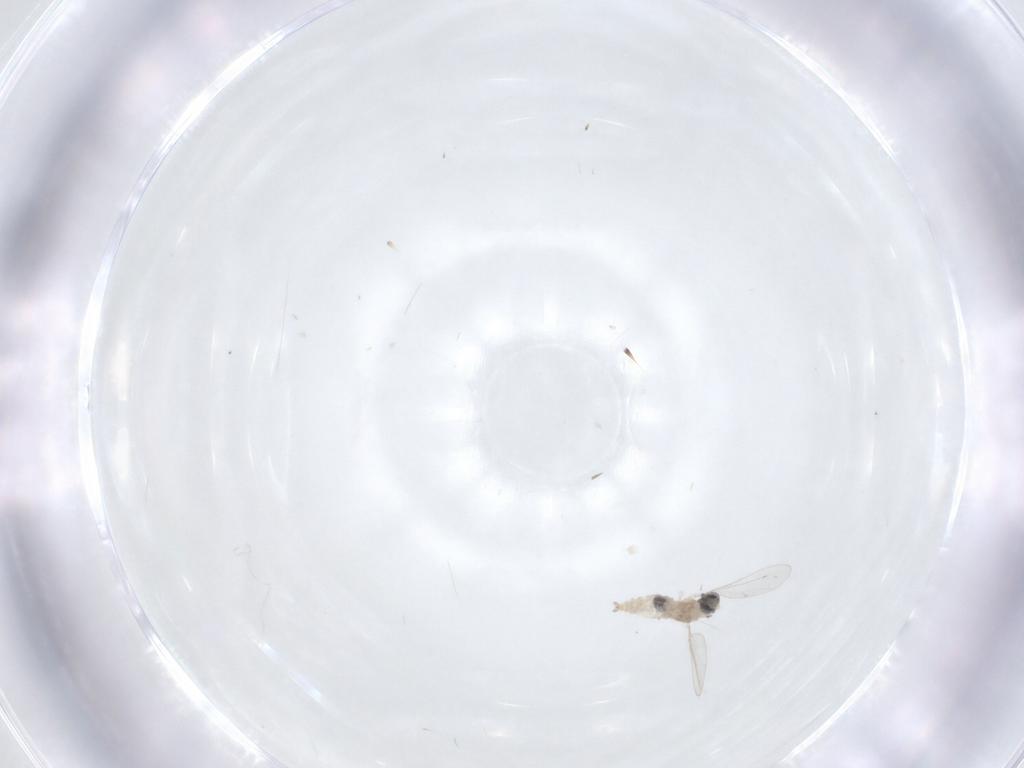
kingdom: Animalia
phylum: Arthropoda
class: Insecta
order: Diptera
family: Cecidomyiidae
